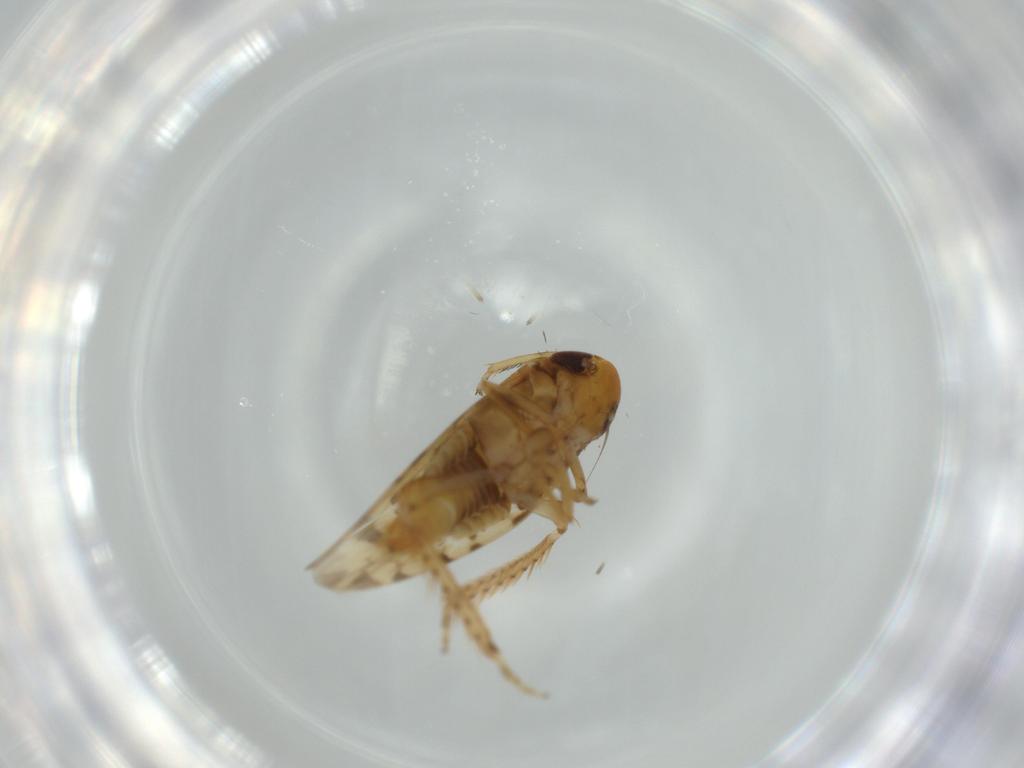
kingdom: Animalia
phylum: Arthropoda
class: Insecta
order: Hemiptera
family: Cicadellidae
